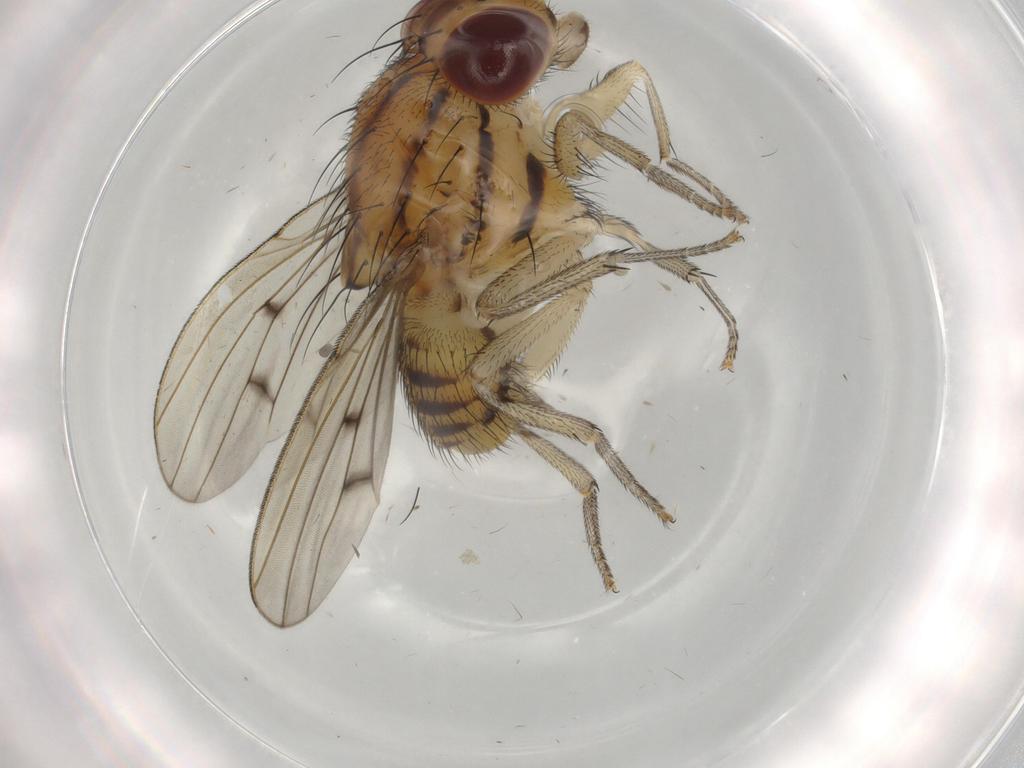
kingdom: Animalia
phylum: Arthropoda
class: Insecta
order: Diptera
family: Lauxaniidae
